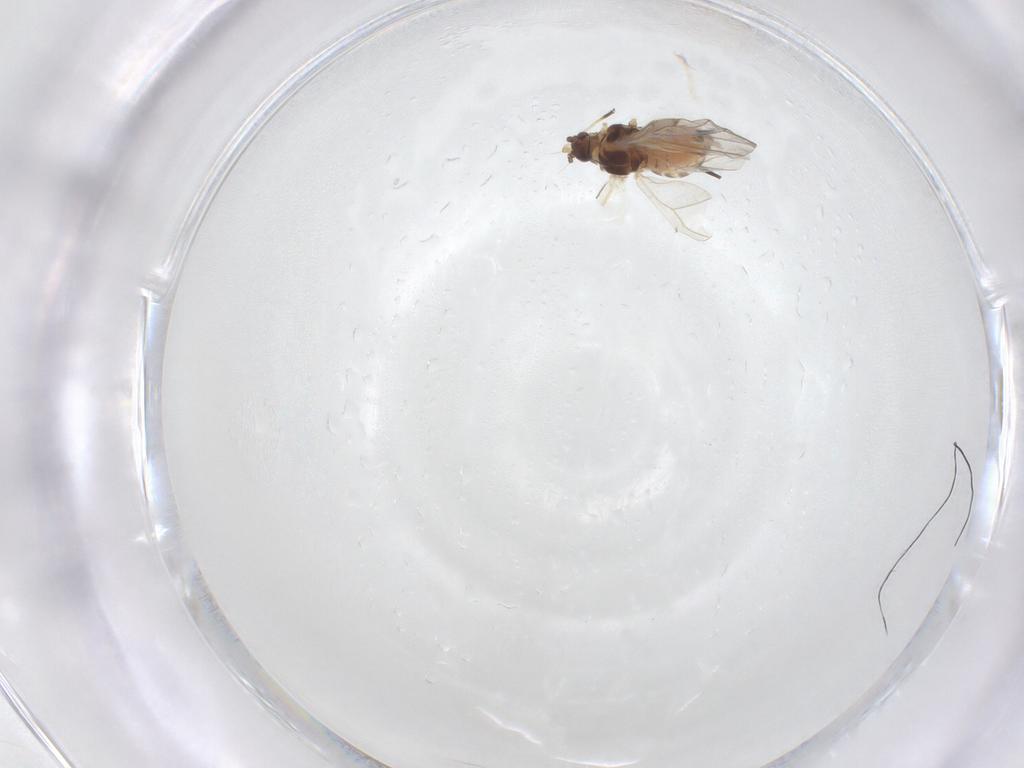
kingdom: Animalia
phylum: Arthropoda
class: Insecta
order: Hemiptera
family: Aphididae
